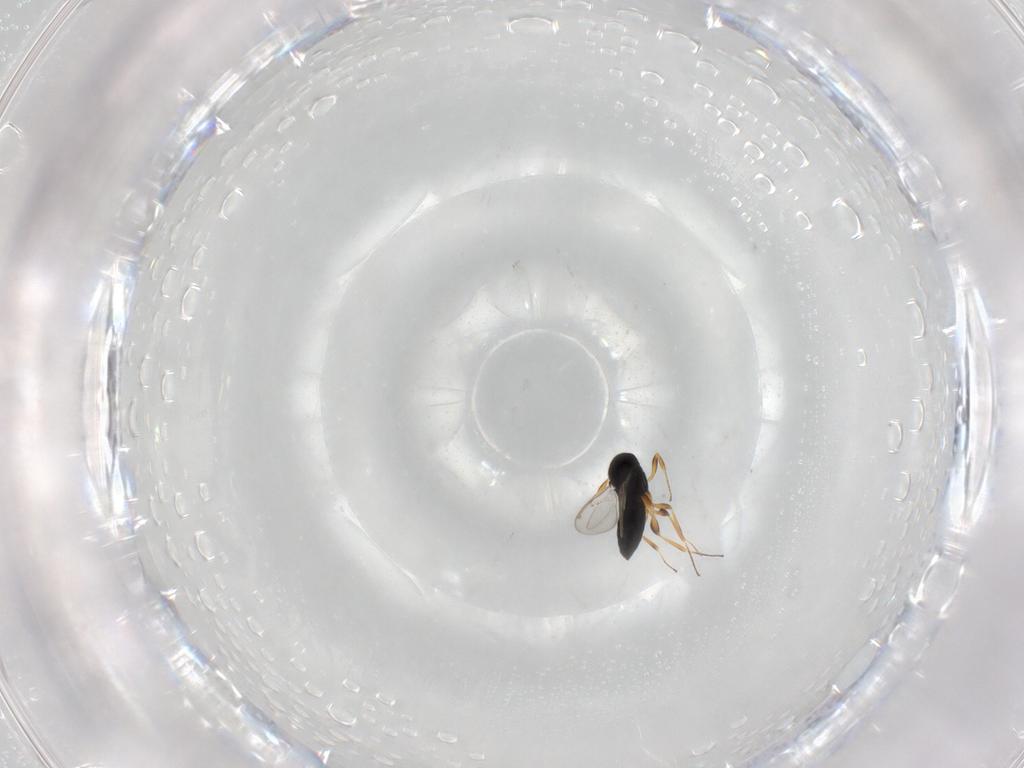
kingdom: Animalia
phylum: Arthropoda
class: Insecta
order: Hymenoptera
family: Scelionidae
